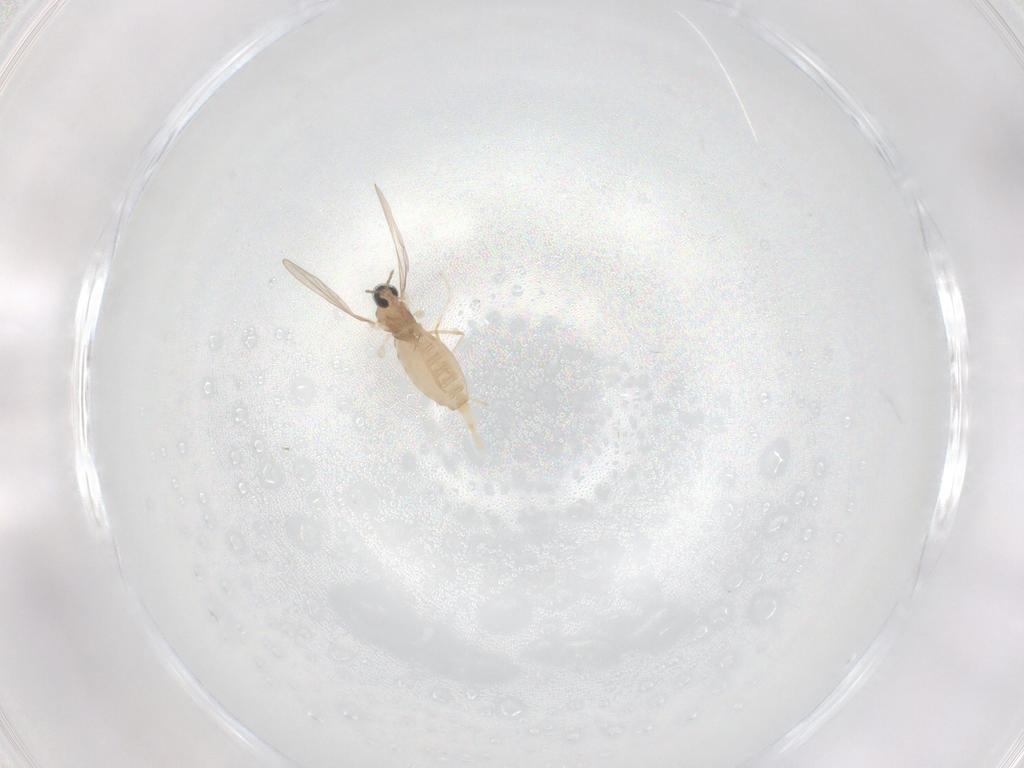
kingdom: Animalia
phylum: Arthropoda
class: Insecta
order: Diptera
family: Cecidomyiidae
